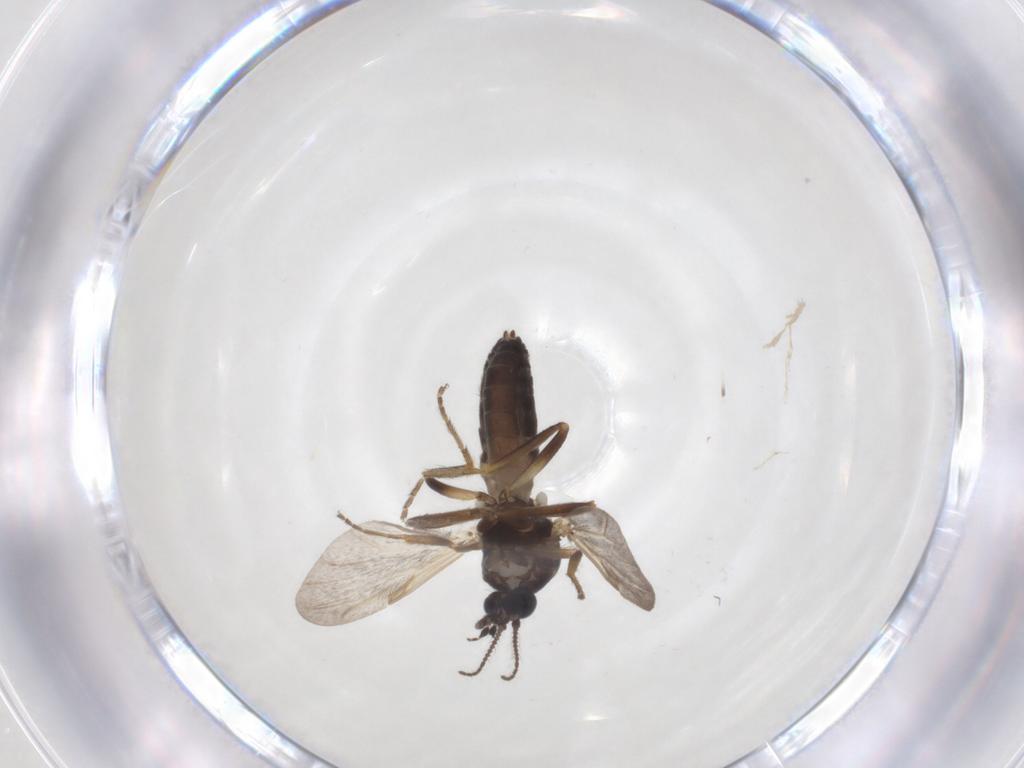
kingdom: Animalia
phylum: Arthropoda
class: Insecta
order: Diptera
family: Ceratopogonidae
